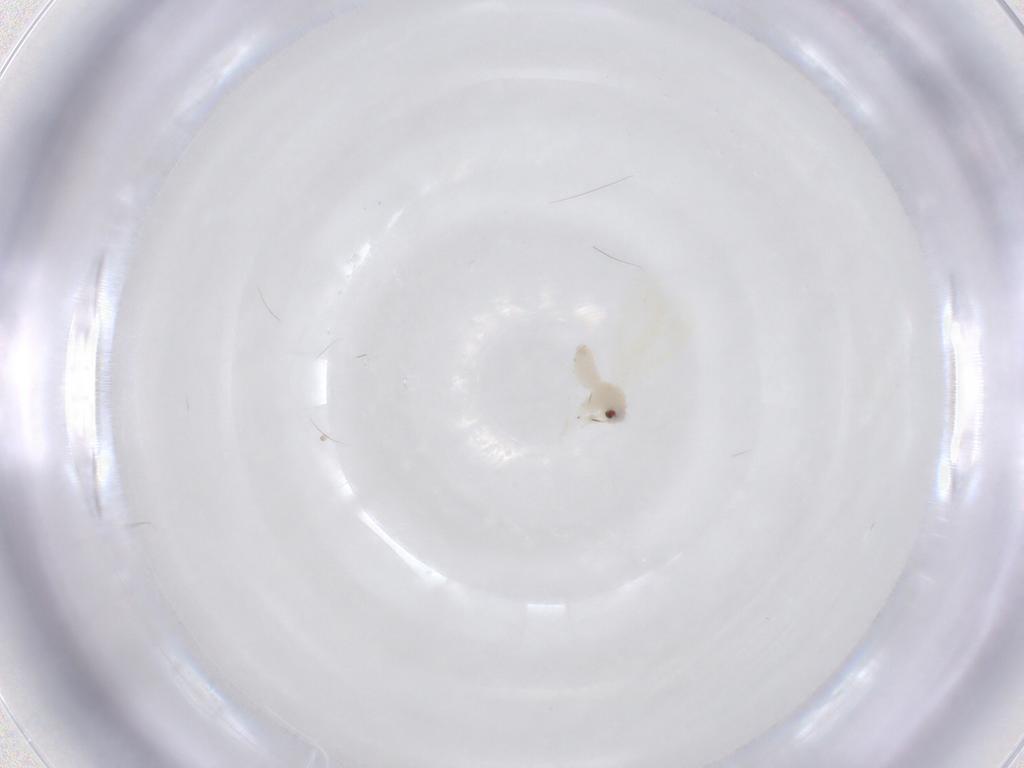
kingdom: Animalia
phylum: Arthropoda
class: Insecta
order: Hemiptera
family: Aleyrodidae
